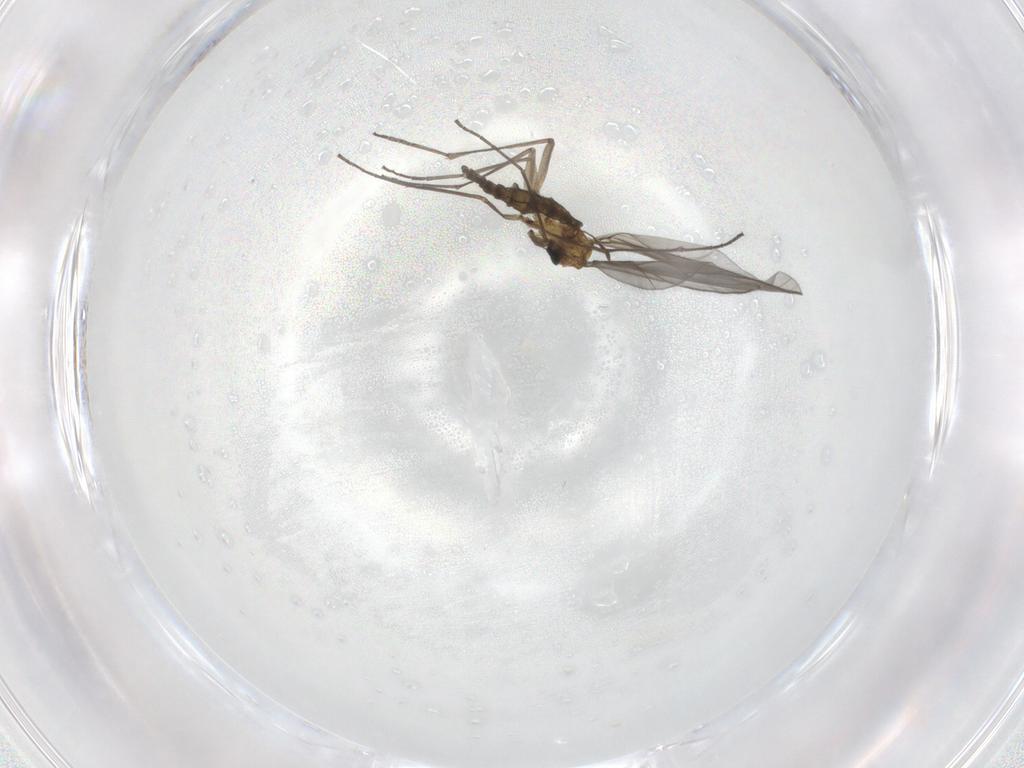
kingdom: Animalia
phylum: Arthropoda
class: Insecta
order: Diptera
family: Sciaridae
